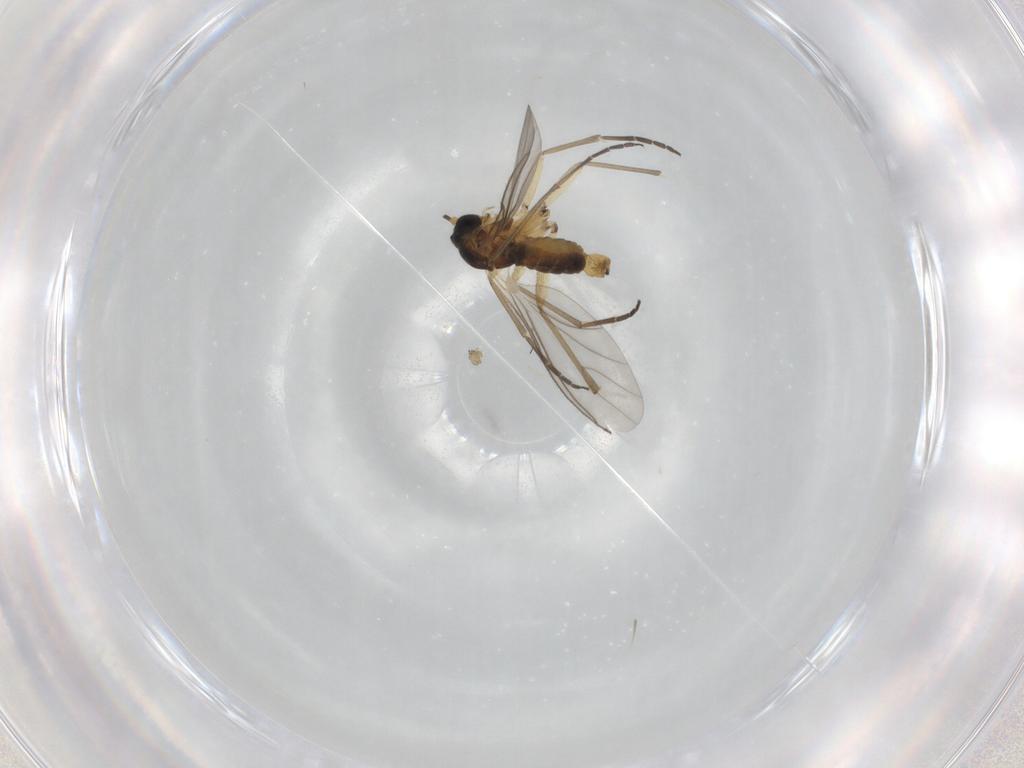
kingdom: Animalia
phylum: Arthropoda
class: Insecta
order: Diptera
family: Cecidomyiidae
